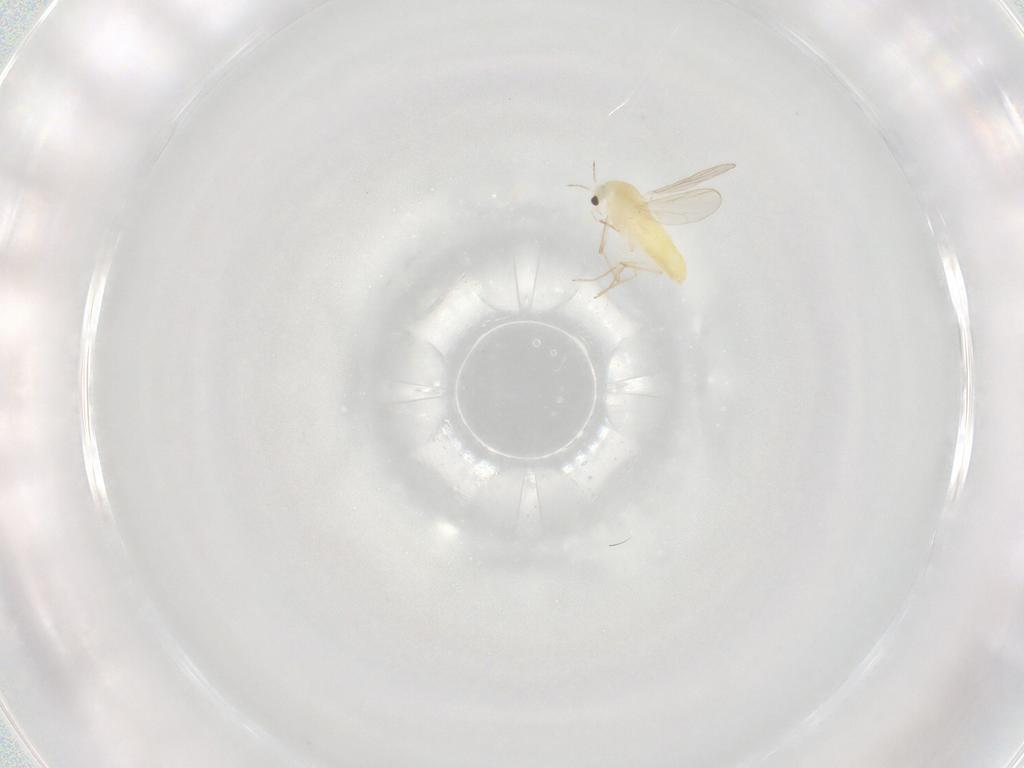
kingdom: Animalia
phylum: Arthropoda
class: Insecta
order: Diptera
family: Chironomidae
